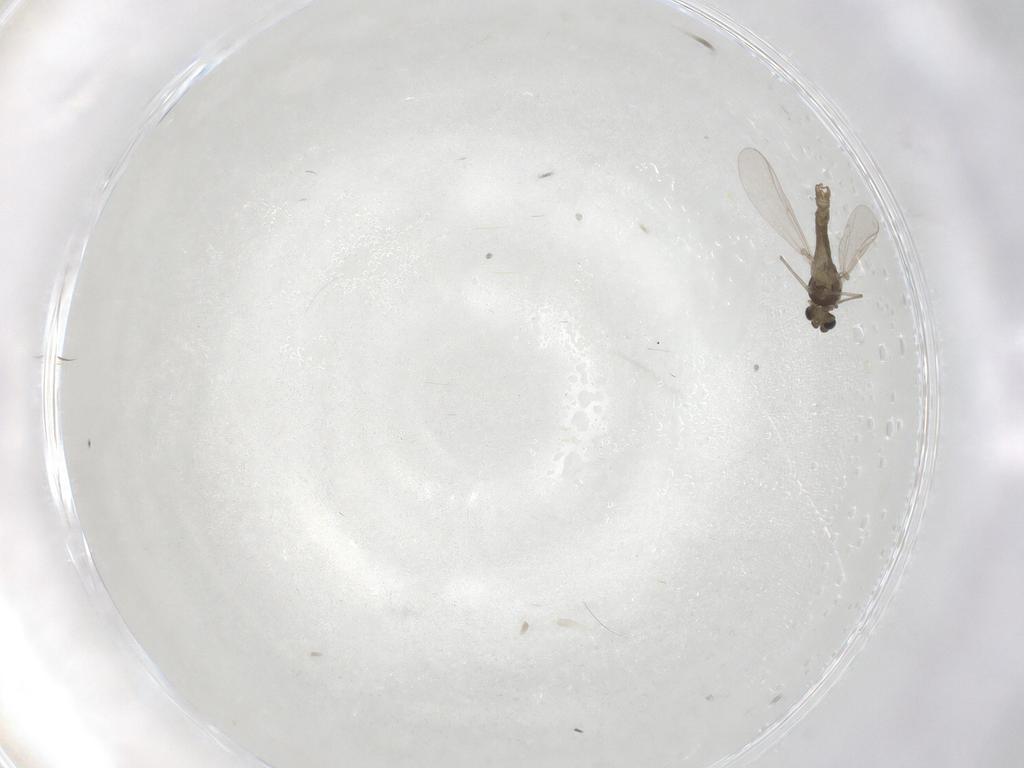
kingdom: Animalia
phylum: Arthropoda
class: Insecta
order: Diptera
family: Chironomidae
